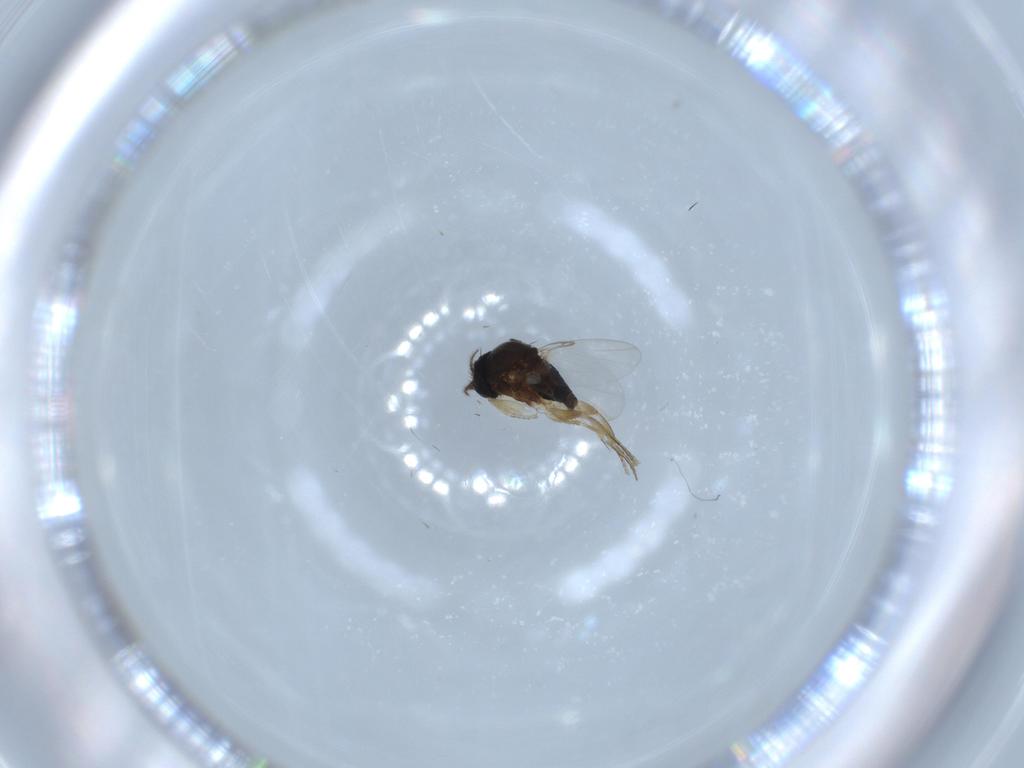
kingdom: Animalia
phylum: Arthropoda
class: Insecta
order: Diptera
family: Phoridae
